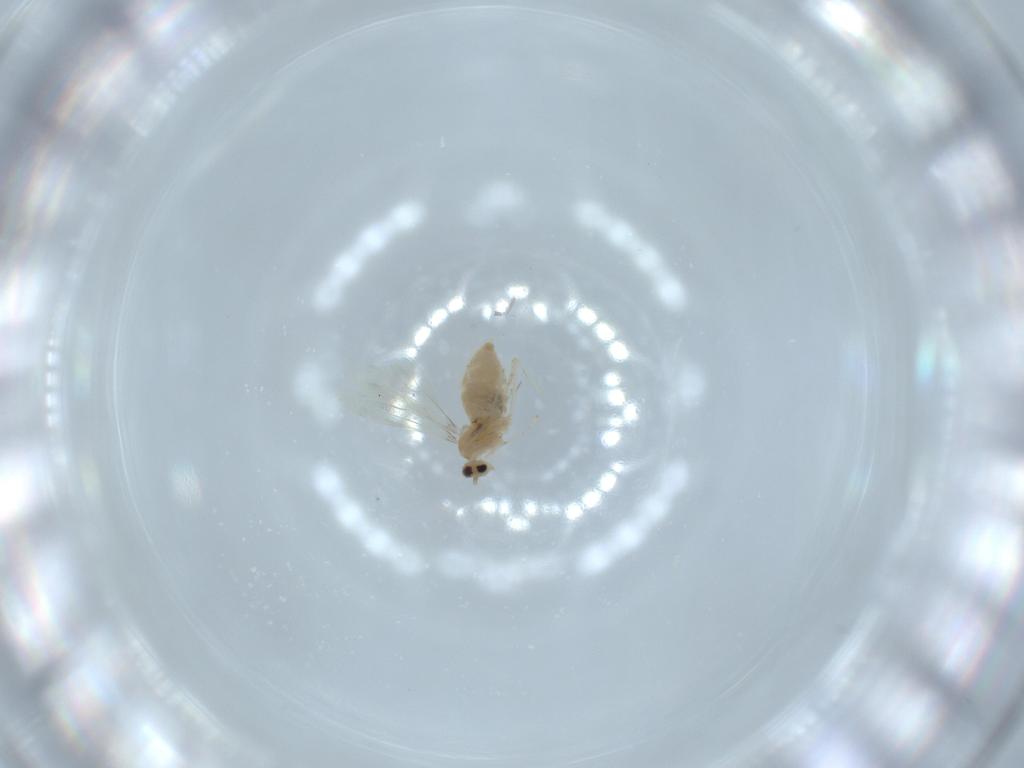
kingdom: Animalia
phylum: Arthropoda
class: Insecta
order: Diptera
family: Cecidomyiidae
